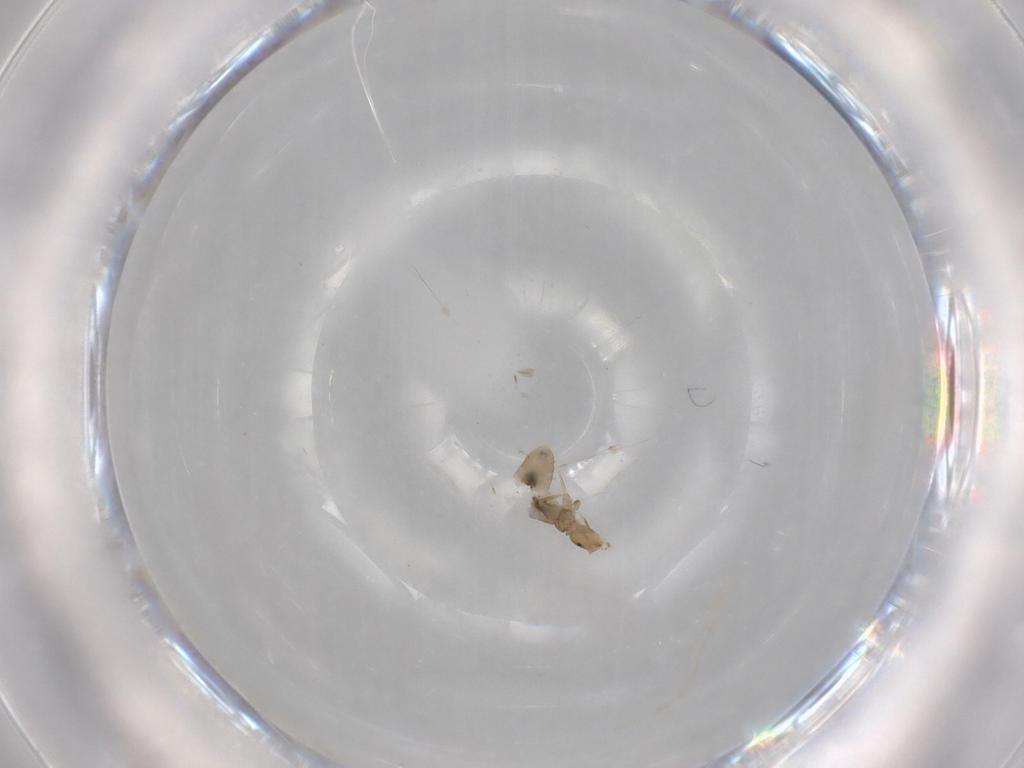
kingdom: Animalia
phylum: Arthropoda
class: Insecta
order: Psocodea
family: Liposcelididae
